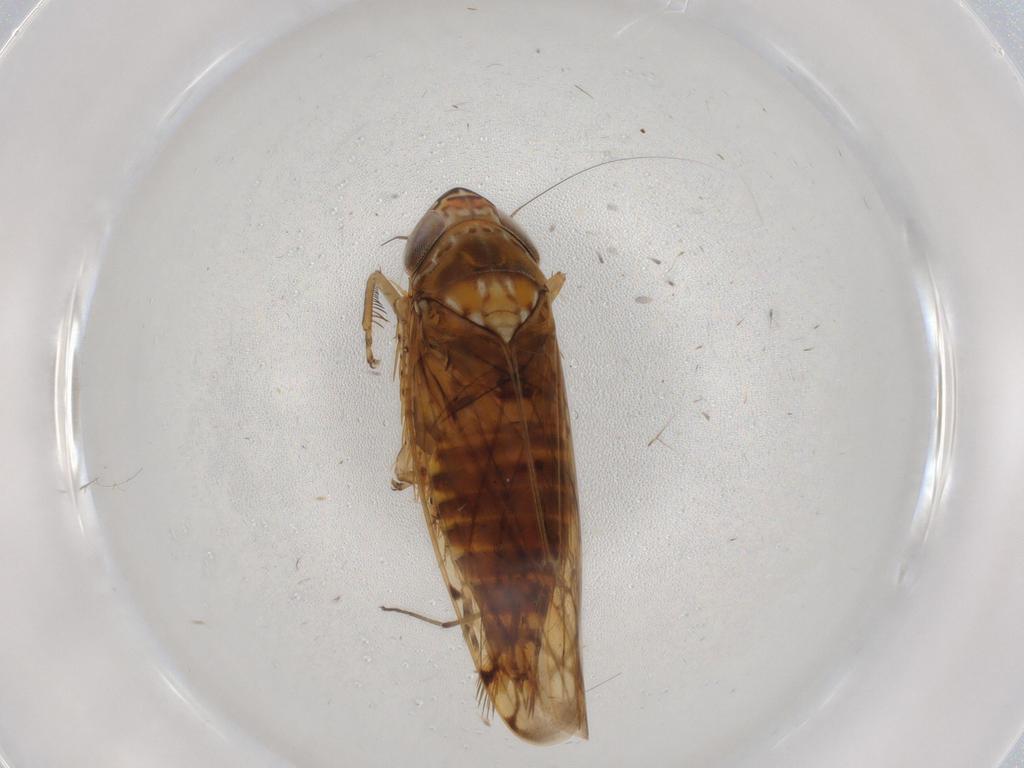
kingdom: Animalia
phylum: Arthropoda
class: Insecta
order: Hemiptera
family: Cicadellidae
